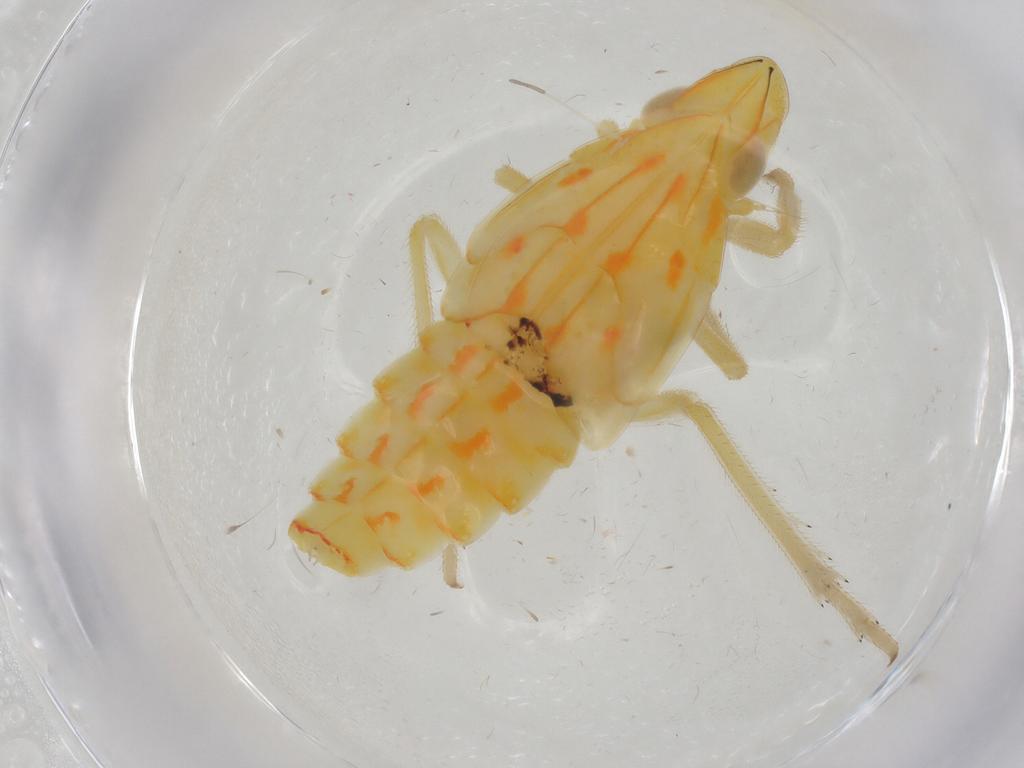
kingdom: Animalia
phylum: Arthropoda
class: Insecta
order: Hemiptera
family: Tropiduchidae
